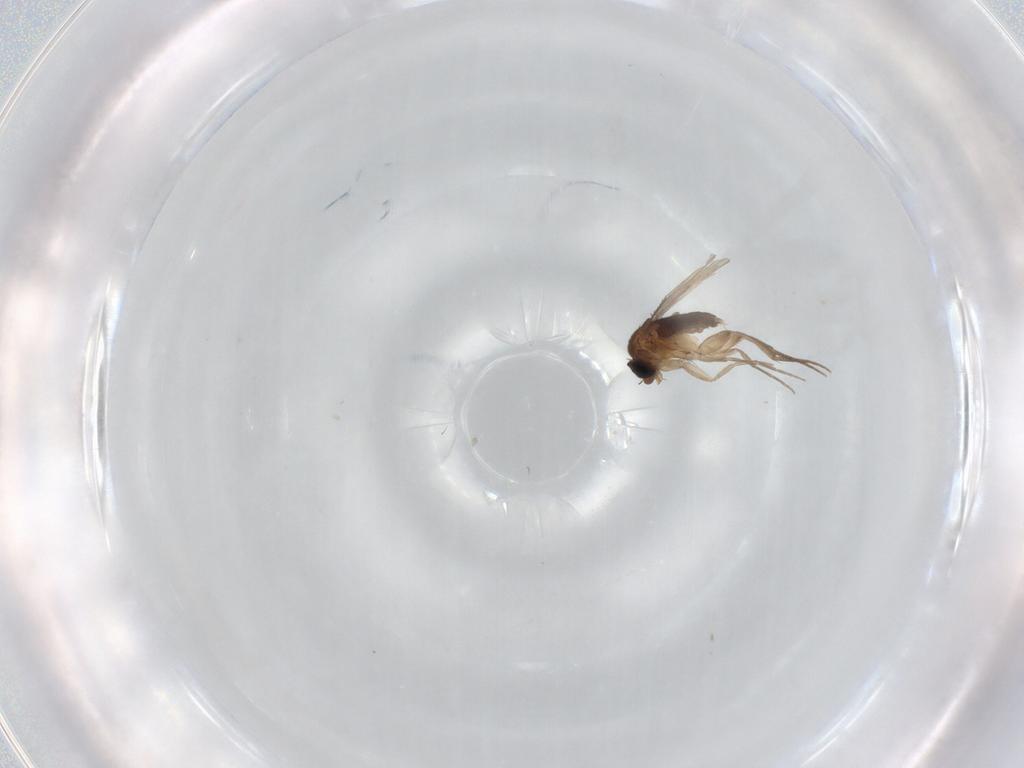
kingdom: Animalia
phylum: Arthropoda
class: Insecta
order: Diptera
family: Phoridae
